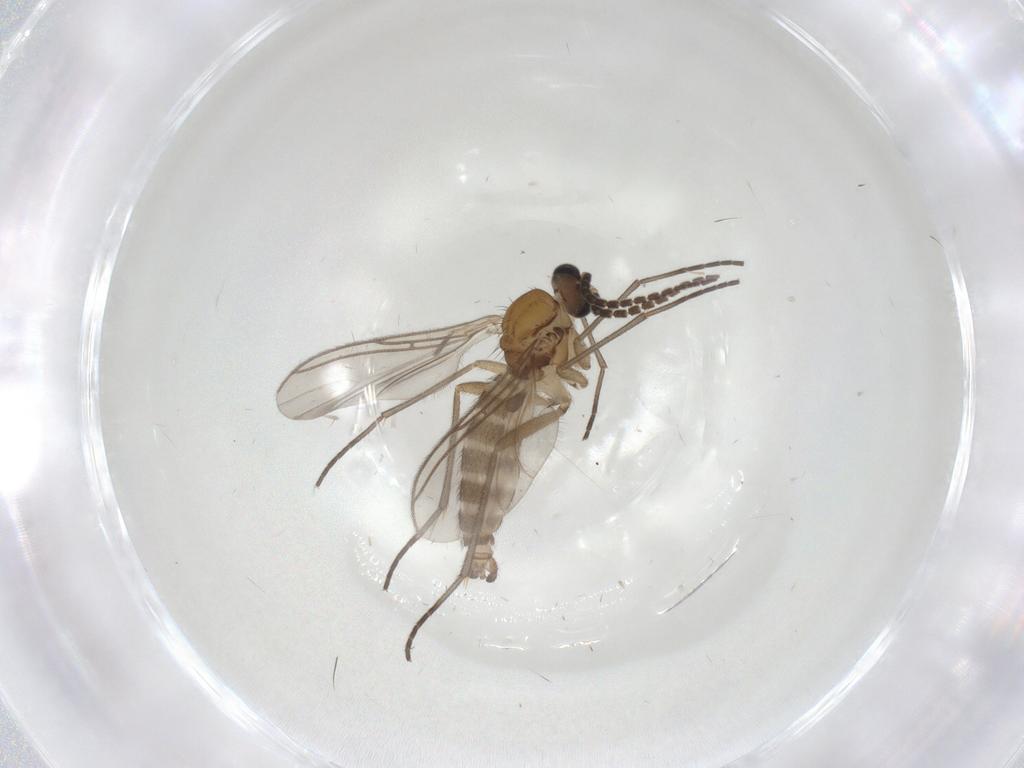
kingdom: Animalia
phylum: Arthropoda
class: Insecta
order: Diptera
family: Sciaridae
